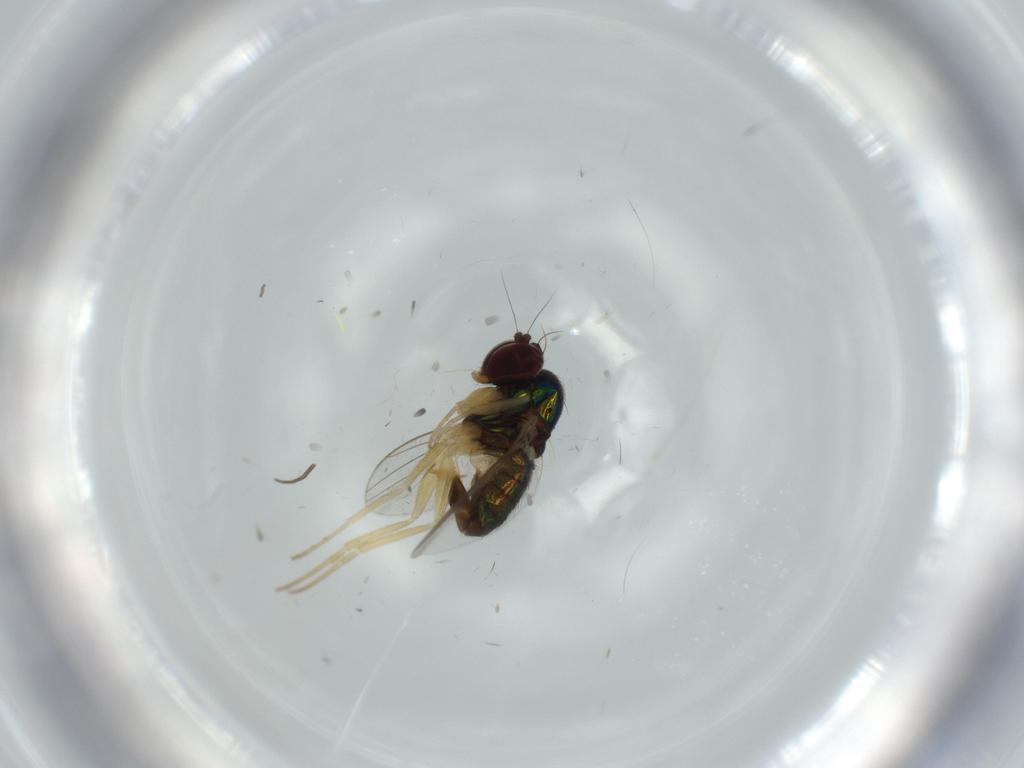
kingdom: Animalia
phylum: Arthropoda
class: Insecta
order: Diptera
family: Dolichopodidae
